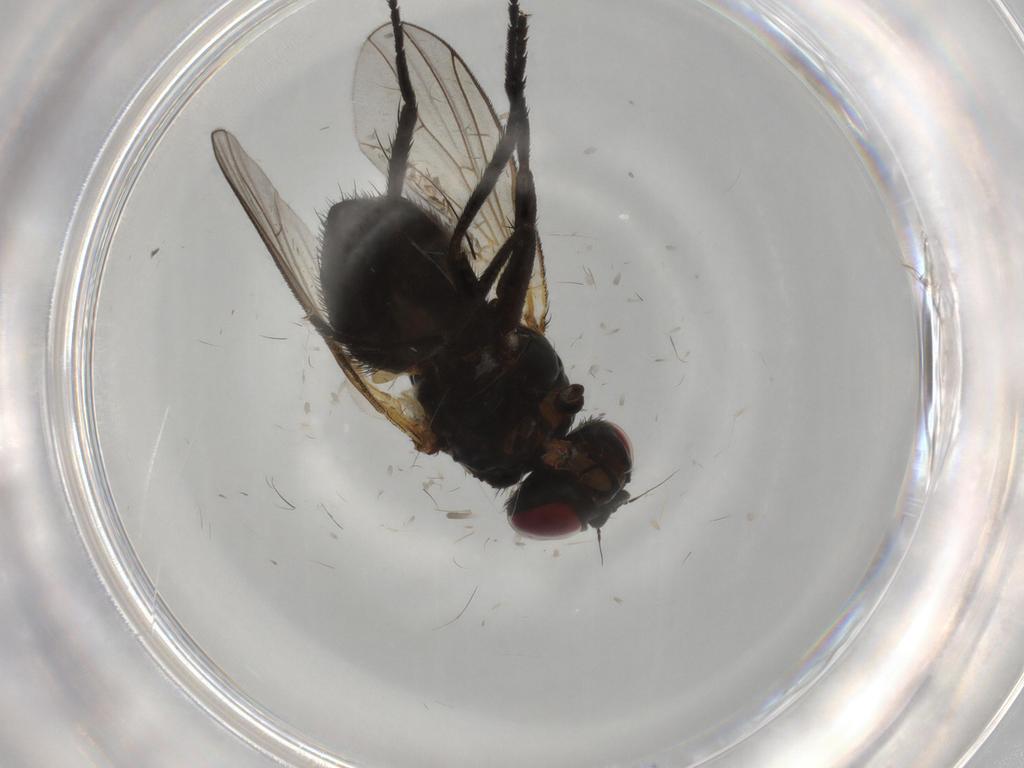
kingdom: Animalia
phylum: Arthropoda
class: Insecta
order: Diptera
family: Fannia
